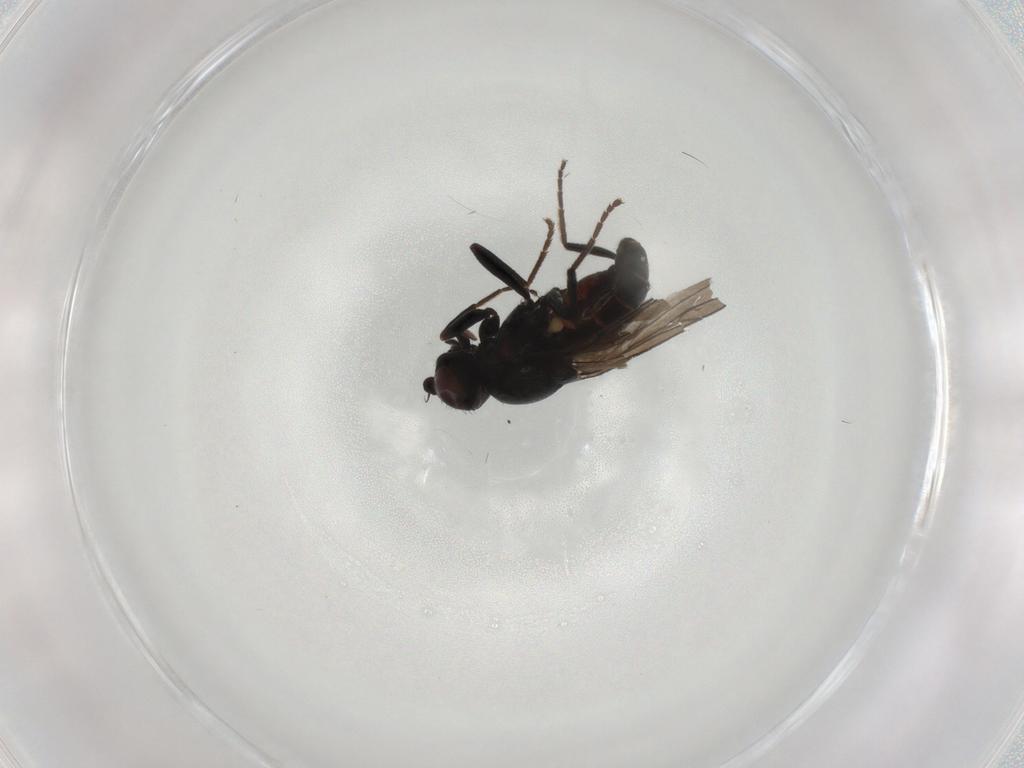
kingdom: Animalia
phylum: Arthropoda
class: Insecta
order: Diptera
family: Chloropidae
